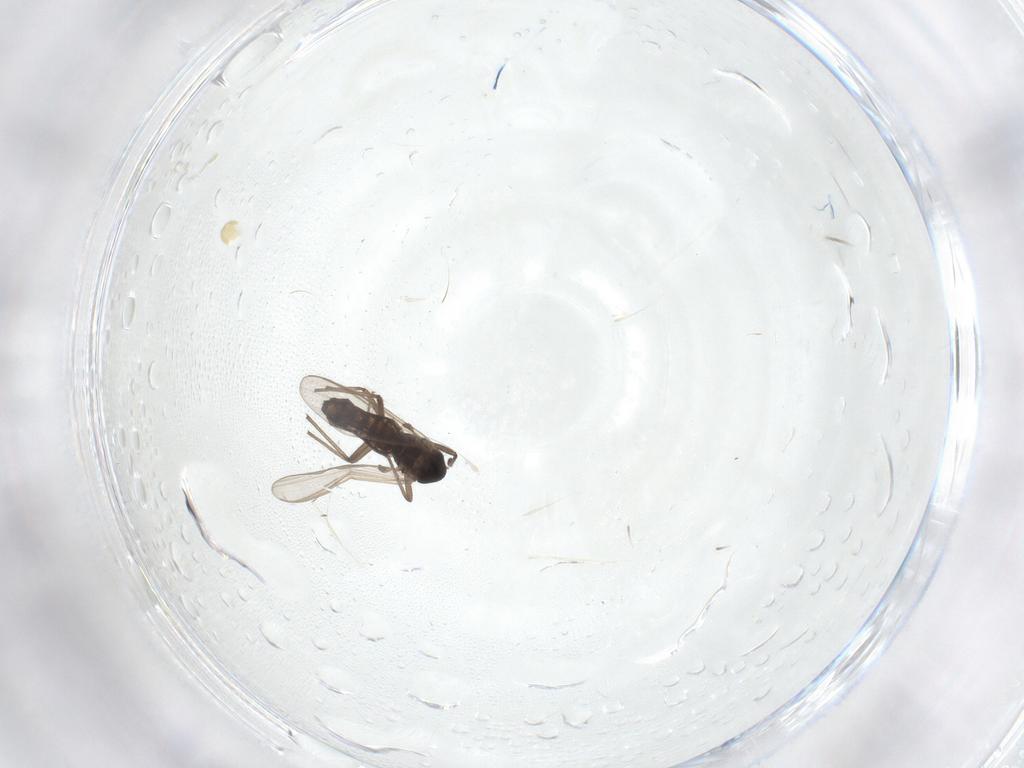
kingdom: Animalia
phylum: Arthropoda
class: Insecta
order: Diptera
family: Chironomidae
